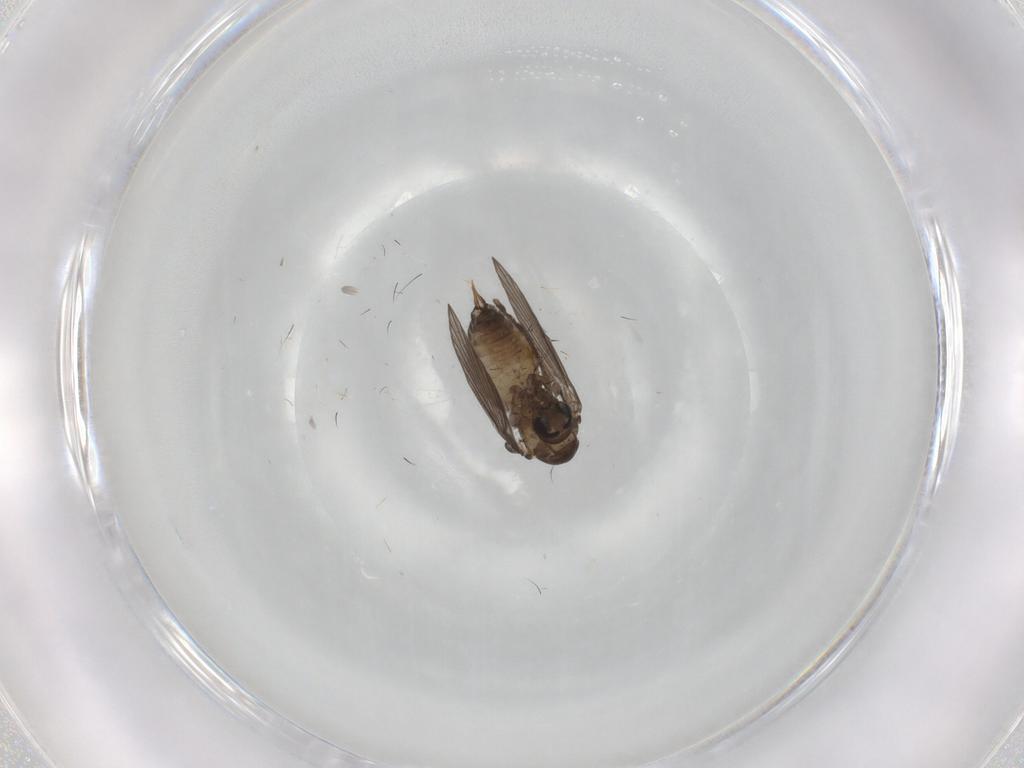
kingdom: Animalia
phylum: Arthropoda
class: Insecta
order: Diptera
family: Psychodidae
